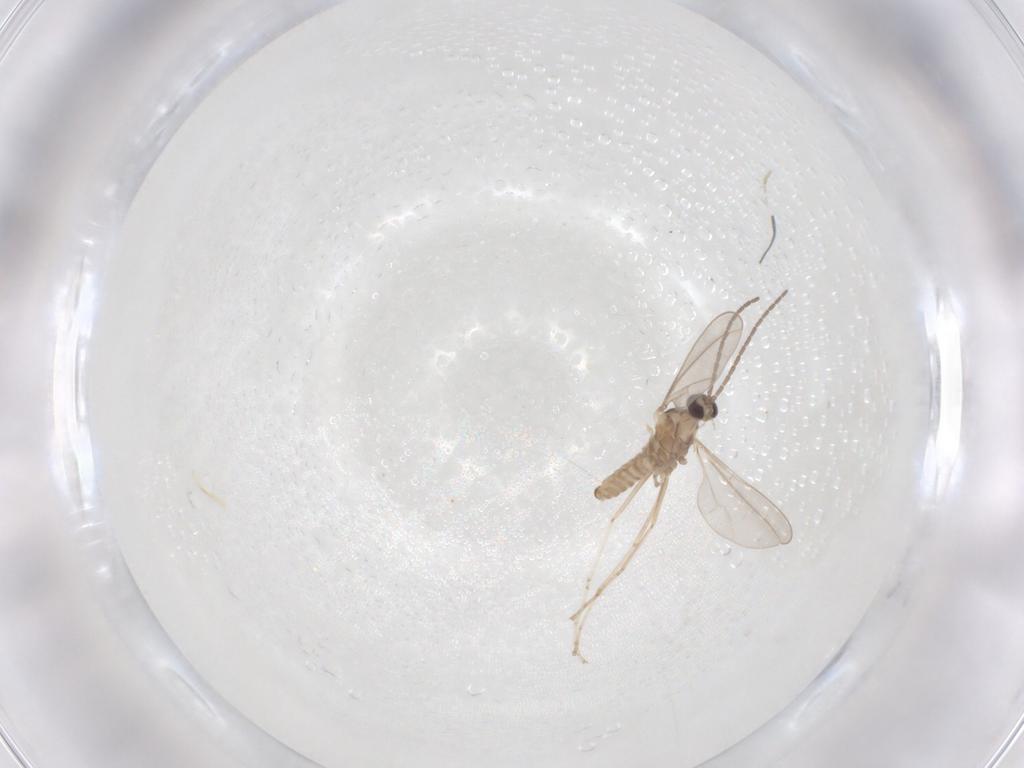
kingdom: Animalia
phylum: Arthropoda
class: Insecta
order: Diptera
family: Cecidomyiidae
